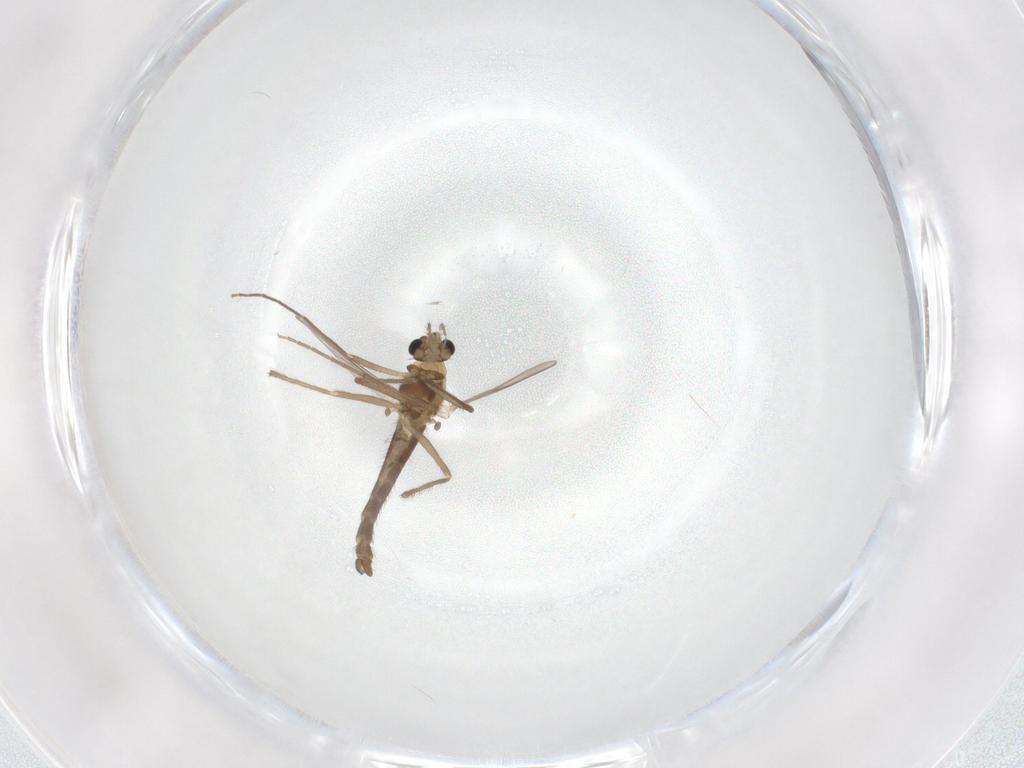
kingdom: Animalia
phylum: Arthropoda
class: Insecta
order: Diptera
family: Chironomidae
